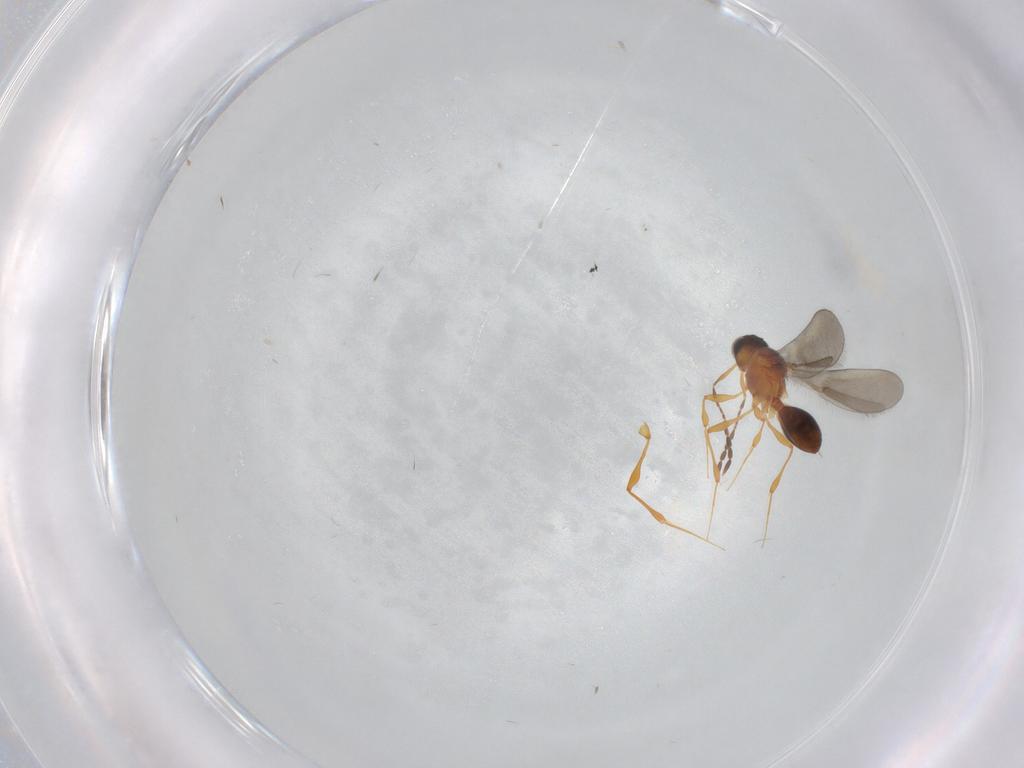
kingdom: Animalia
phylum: Arthropoda
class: Insecta
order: Hymenoptera
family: Platygastridae
